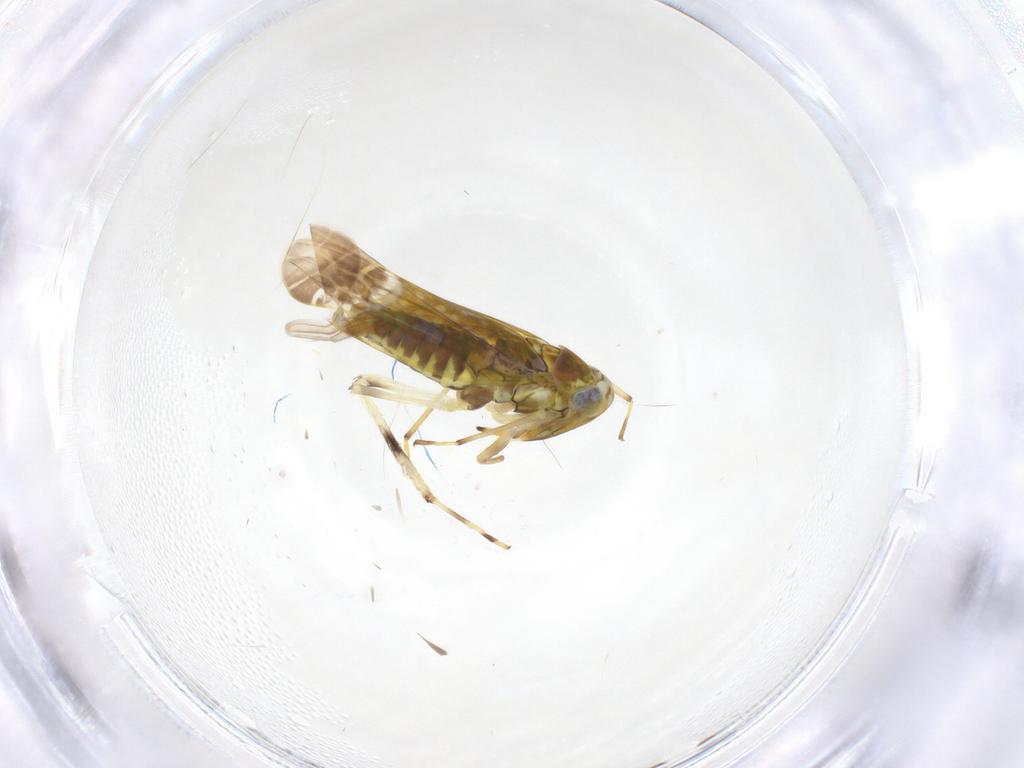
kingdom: Animalia
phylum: Arthropoda
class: Insecta
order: Hemiptera
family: Cicadellidae
